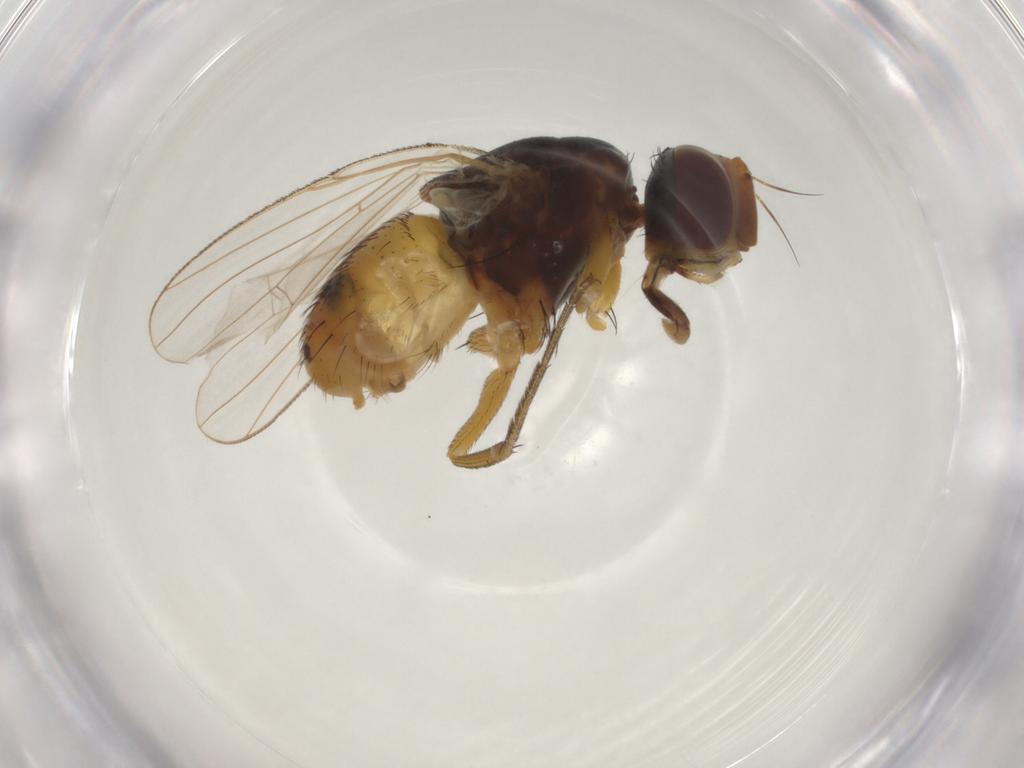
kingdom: Animalia
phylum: Arthropoda
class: Insecta
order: Diptera
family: Muscidae
